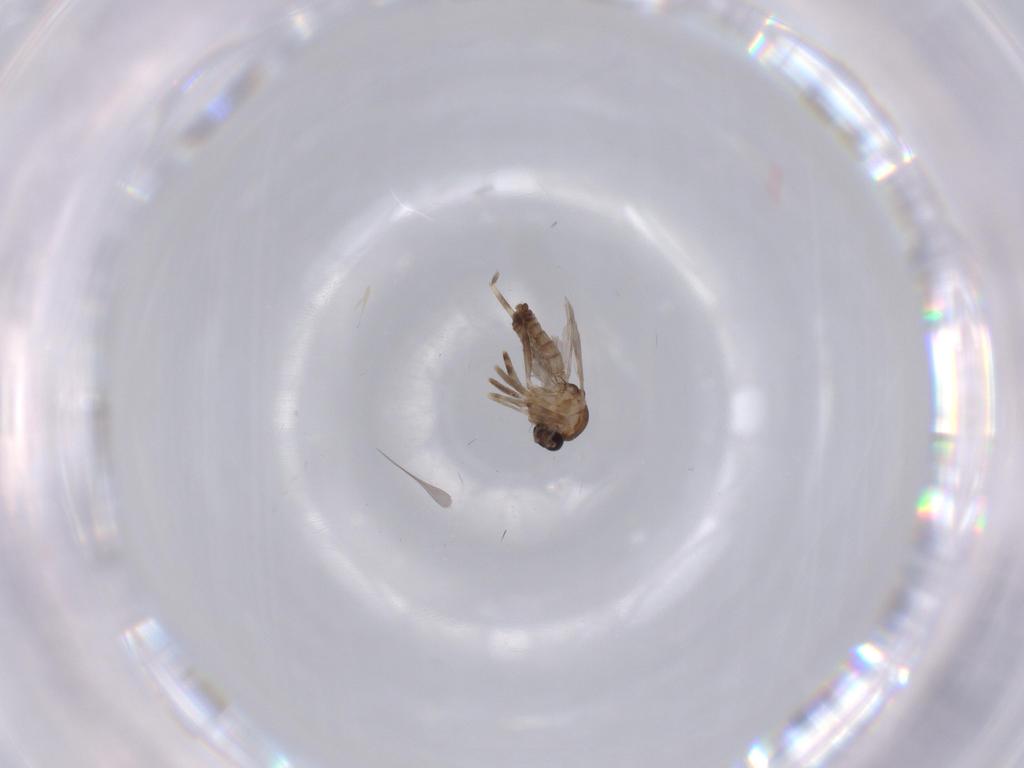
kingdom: Animalia
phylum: Arthropoda
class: Insecta
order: Diptera
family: Ceratopogonidae
